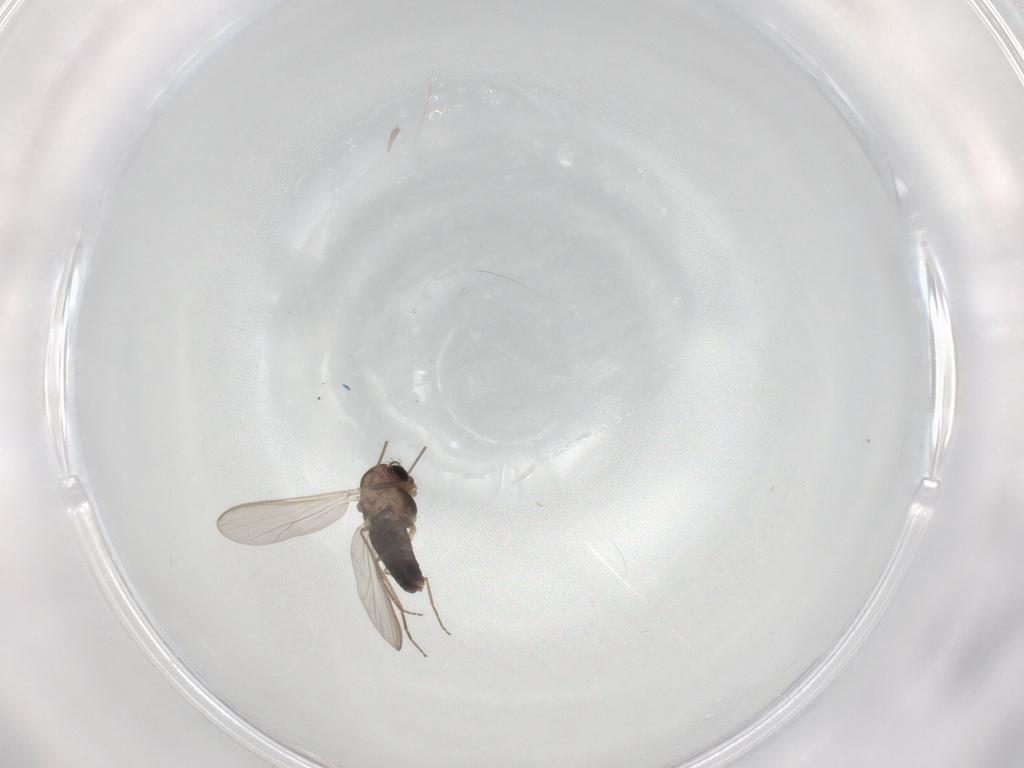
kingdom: Animalia
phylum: Arthropoda
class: Insecta
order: Diptera
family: Chironomidae
